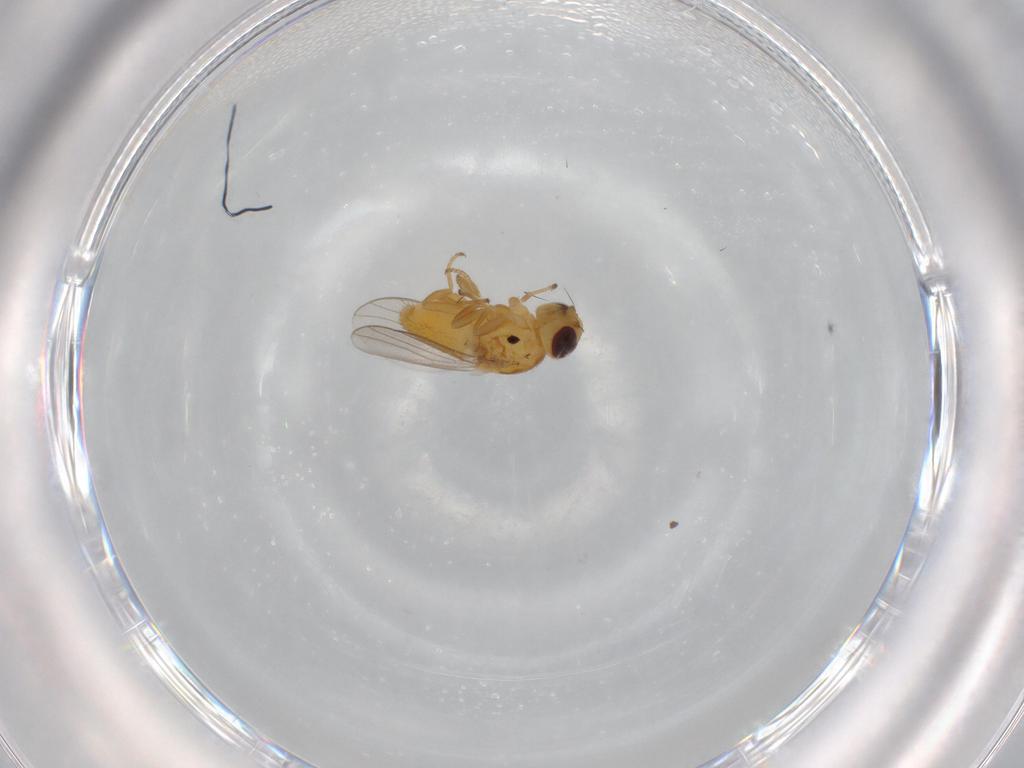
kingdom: Animalia
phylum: Arthropoda
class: Insecta
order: Diptera
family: Chloropidae
